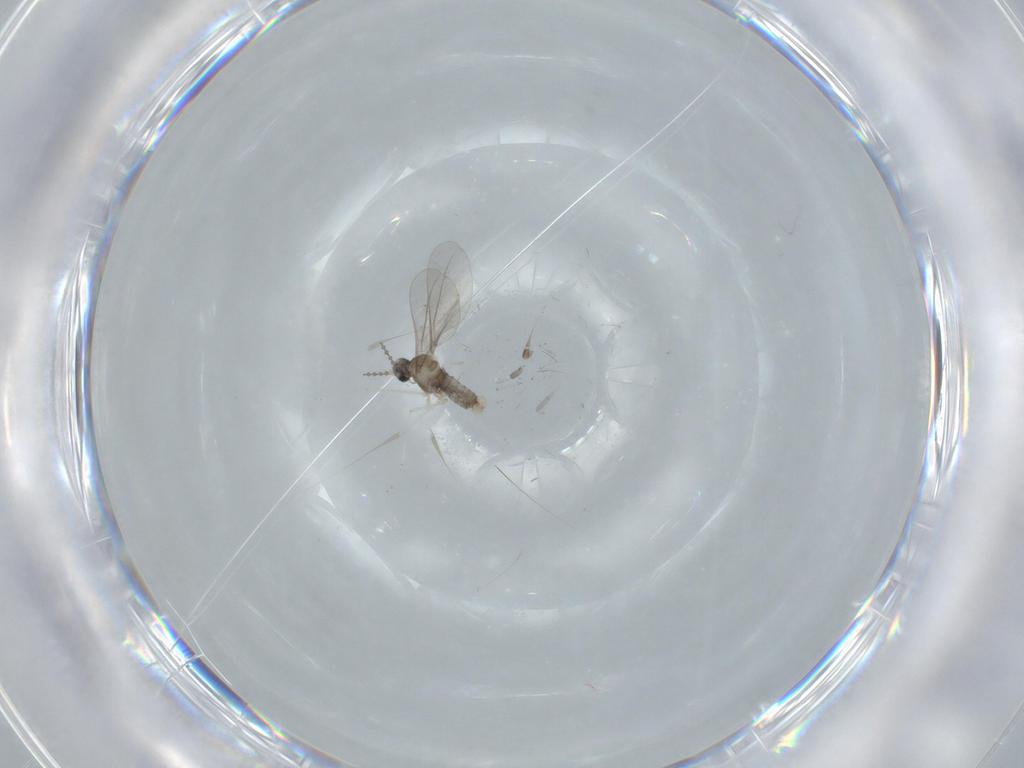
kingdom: Animalia
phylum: Arthropoda
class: Insecta
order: Diptera
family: Cecidomyiidae
